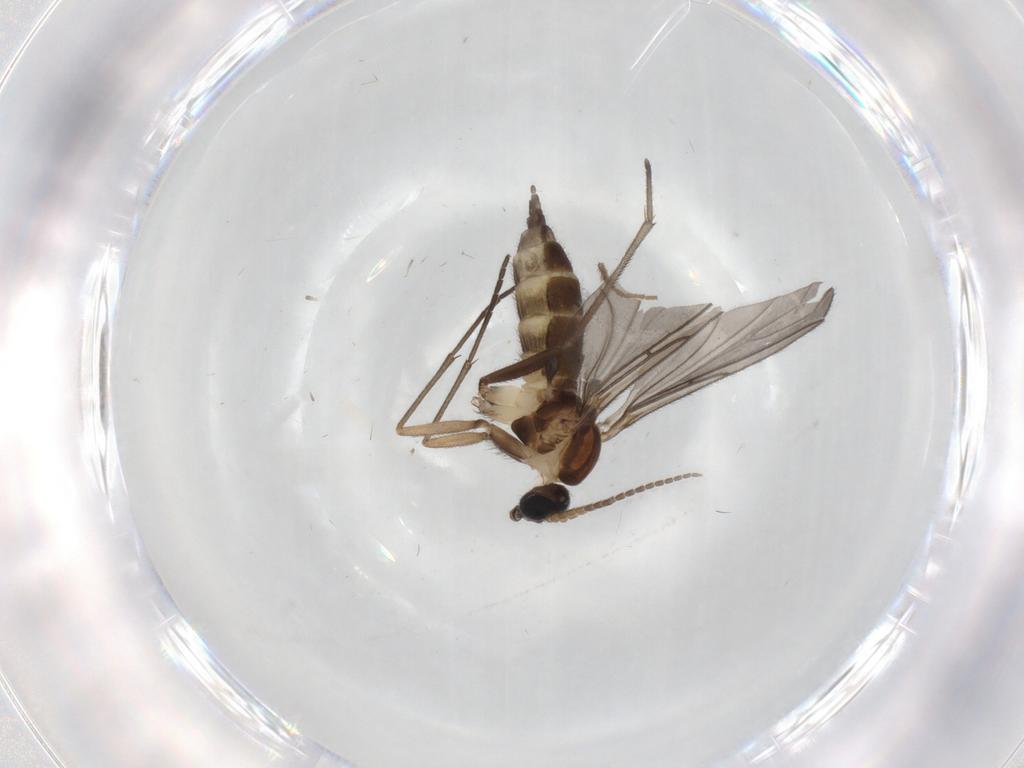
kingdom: Animalia
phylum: Arthropoda
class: Insecta
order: Diptera
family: Sciaridae
